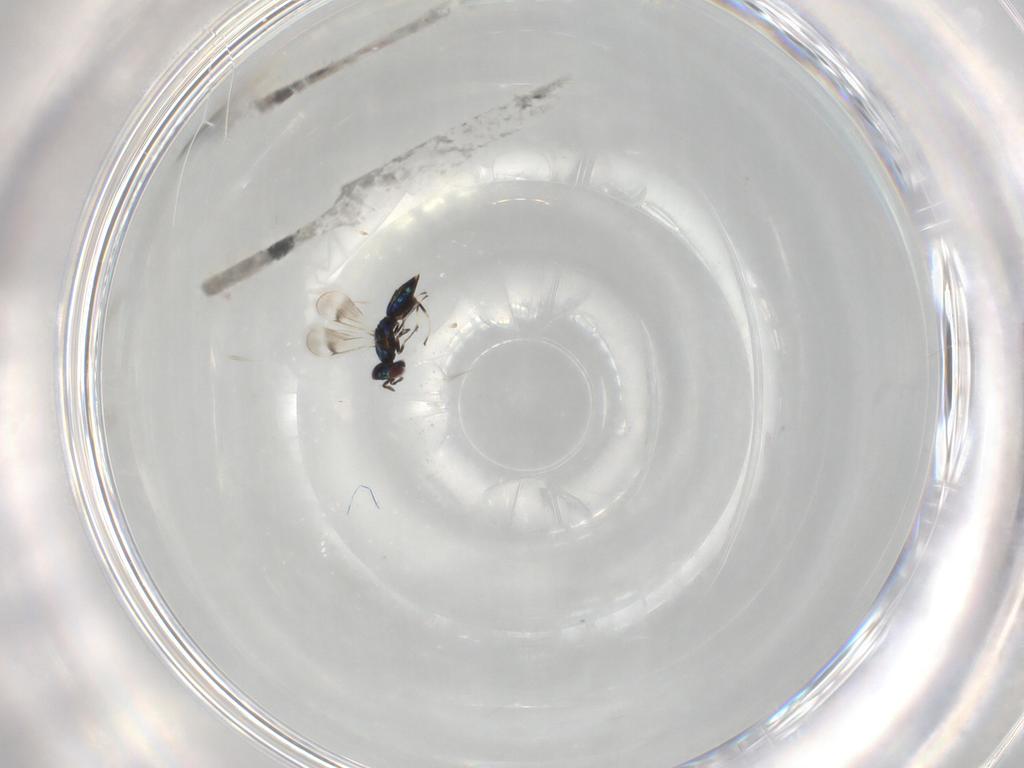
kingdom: Animalia
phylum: Arthropoda
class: Insecta
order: Hymenoptera
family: Eulophidae
